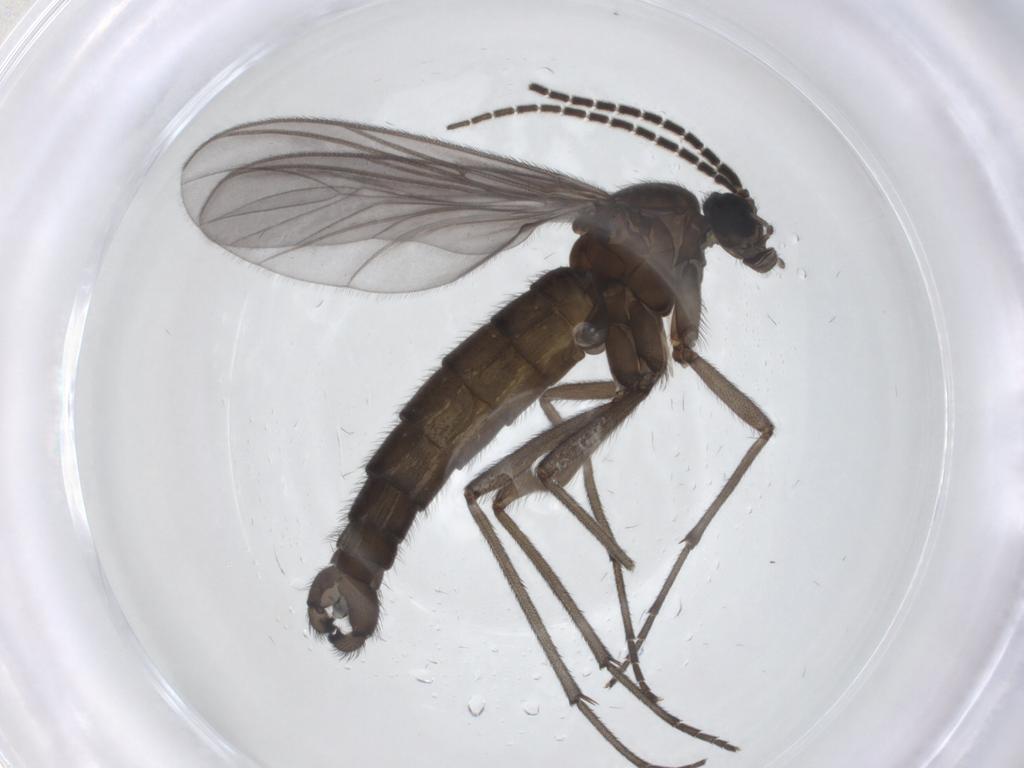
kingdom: Animalia
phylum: Arthropoda
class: Insecta
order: Diptera
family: Cecidomyiidae
